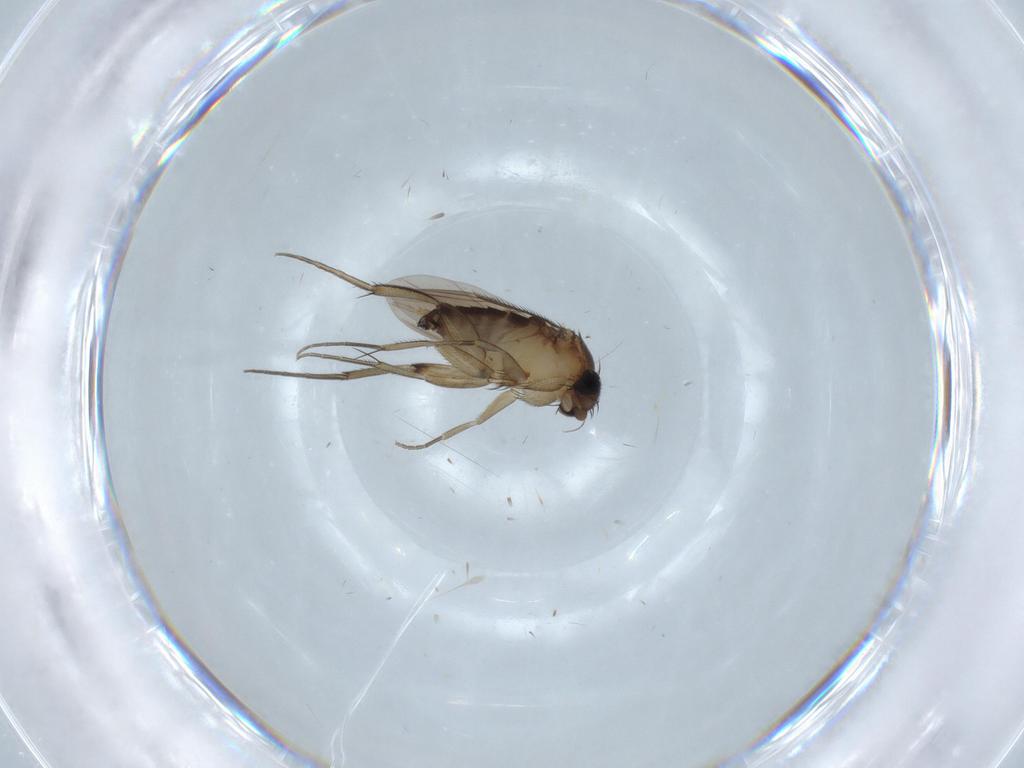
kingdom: Animalia
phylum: Arthropoda
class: Insecta
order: Diptera
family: Phoridae
